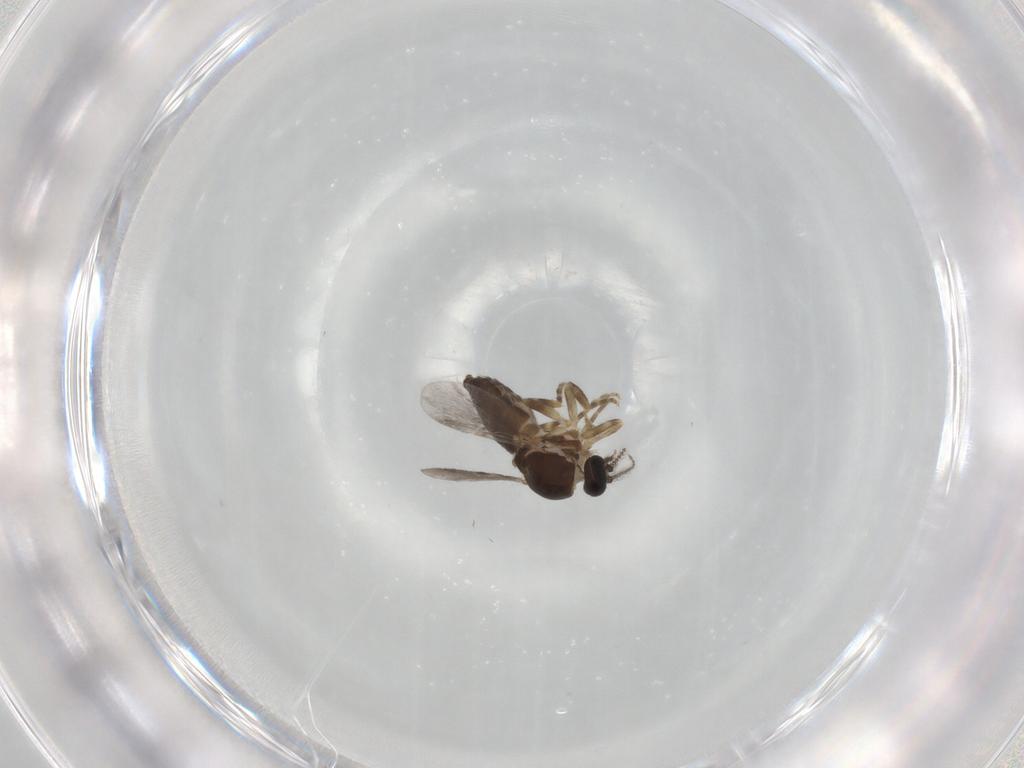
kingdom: Animalia
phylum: Arthropoda
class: Insecta
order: Diptera
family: Ceratopogonidae
